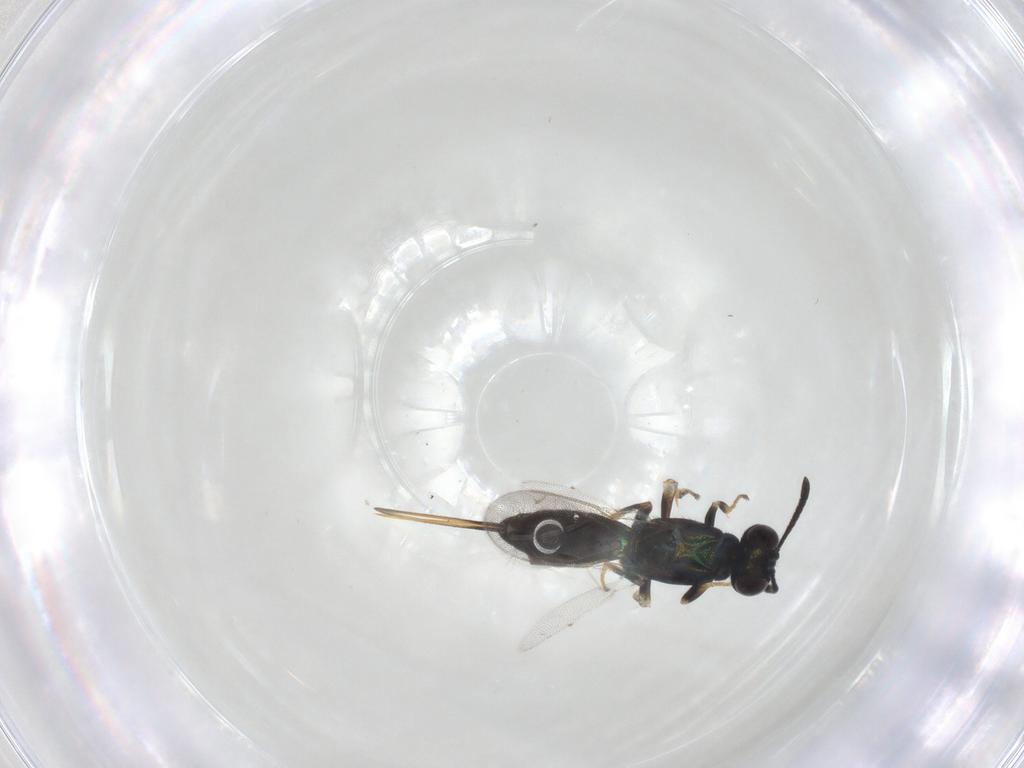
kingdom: Animalia
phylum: Arthropoda
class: Insecta
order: Hymenoptera
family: Eupelmidae
